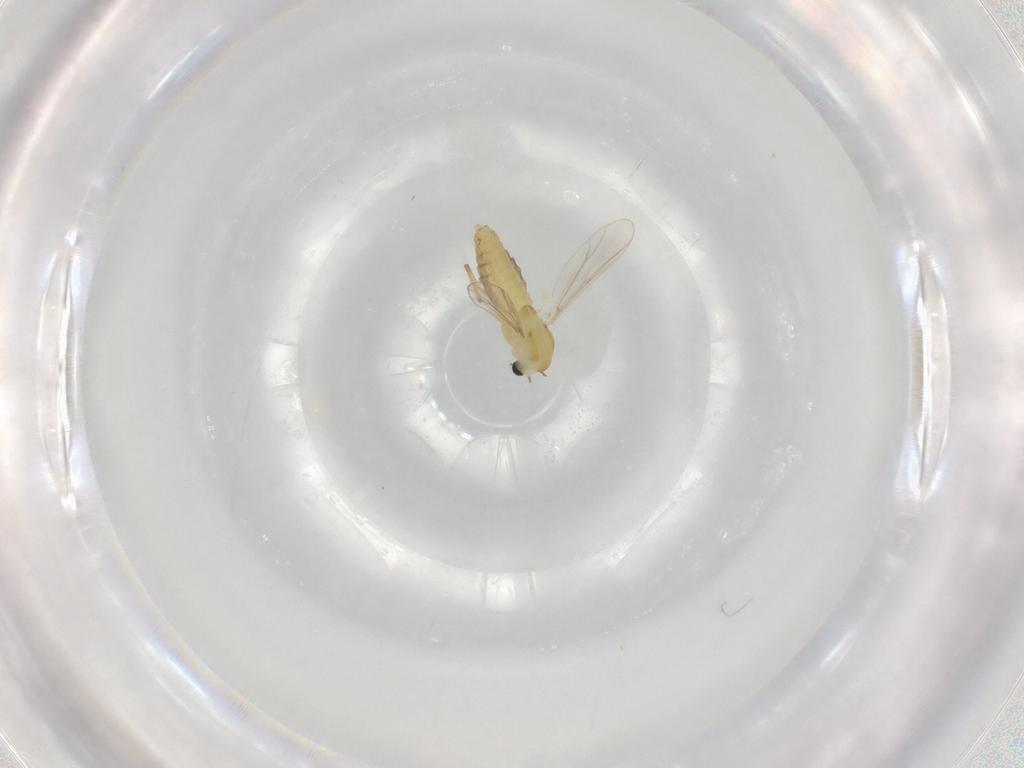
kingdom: Animalia
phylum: Arthropoda
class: Insecta
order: Diptera
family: Chironomidae
